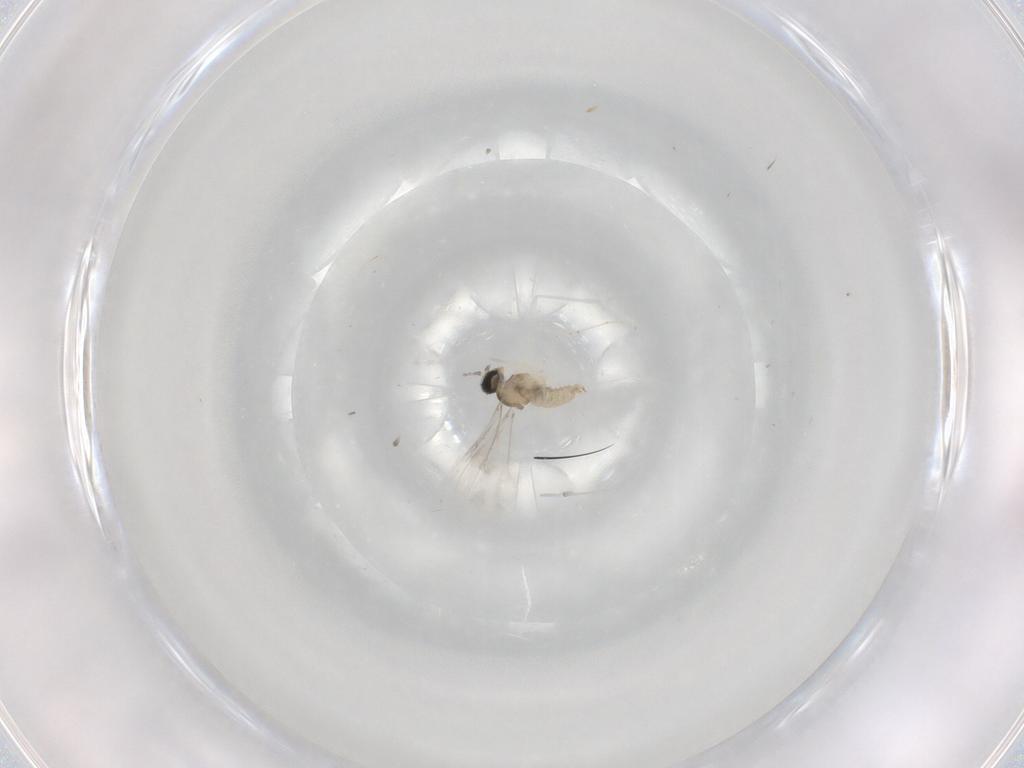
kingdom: Animalia
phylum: Arthropoda
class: Insecta
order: Diptera
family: Cecidomyiidae
